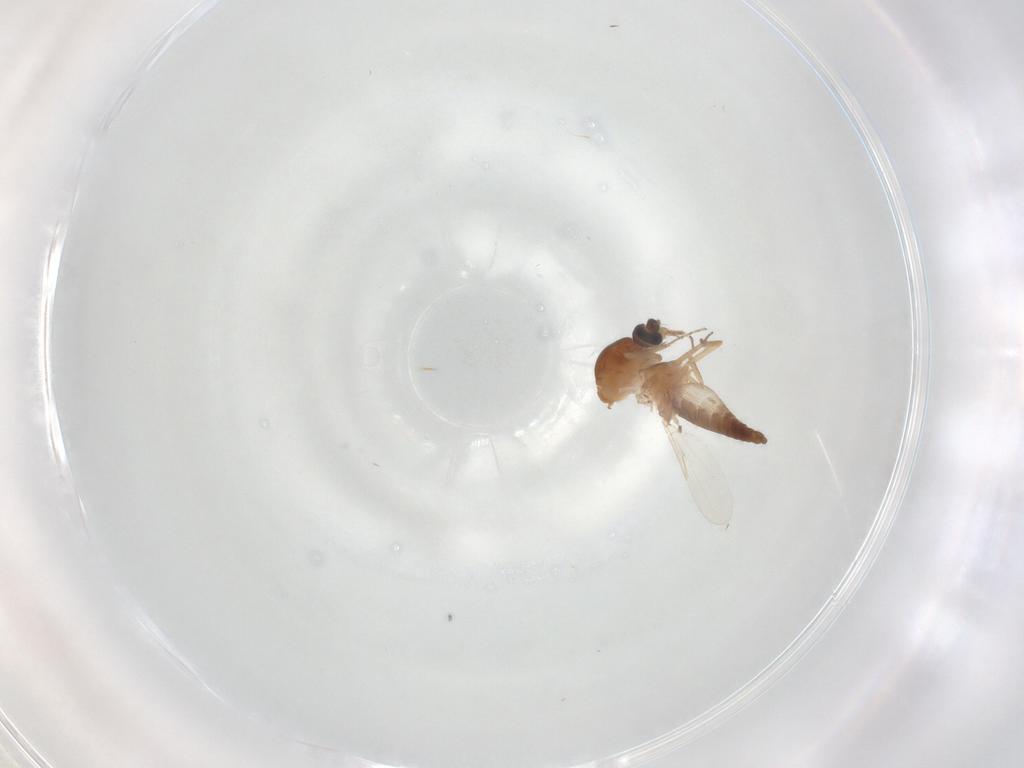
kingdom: Animalia
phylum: Arthropoda
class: Insecta
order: Diptera
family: Ceratopogonidae
